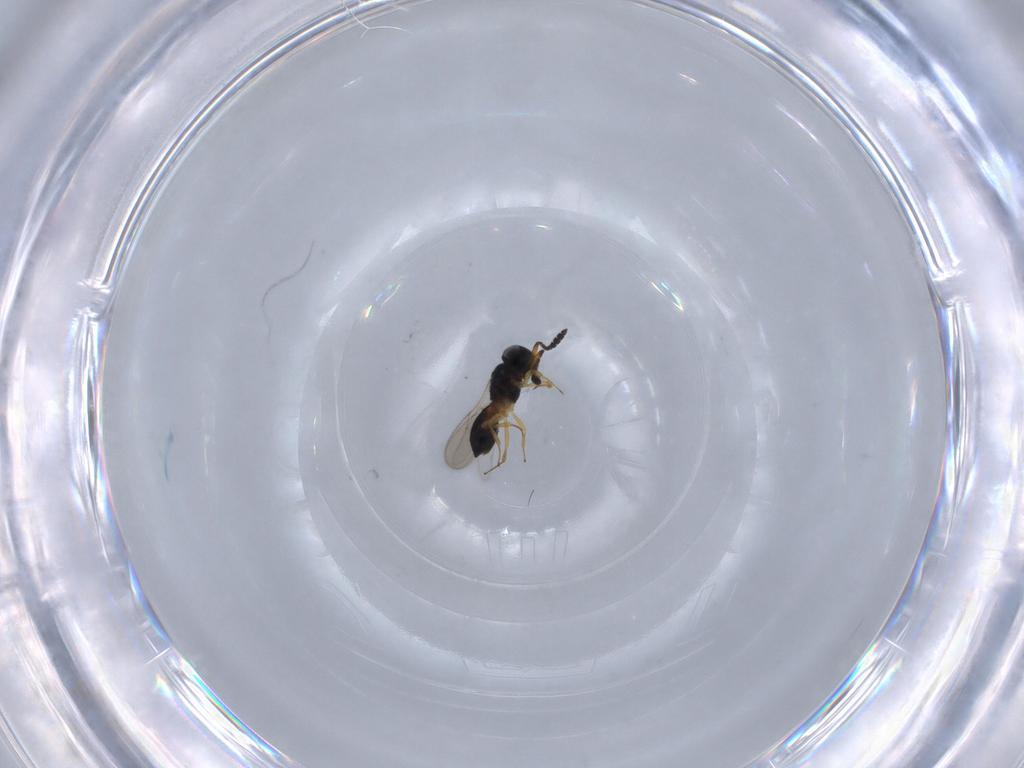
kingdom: Animalia
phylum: Arthropoda
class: Insecta
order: Hymenoptera
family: Scelionidae
